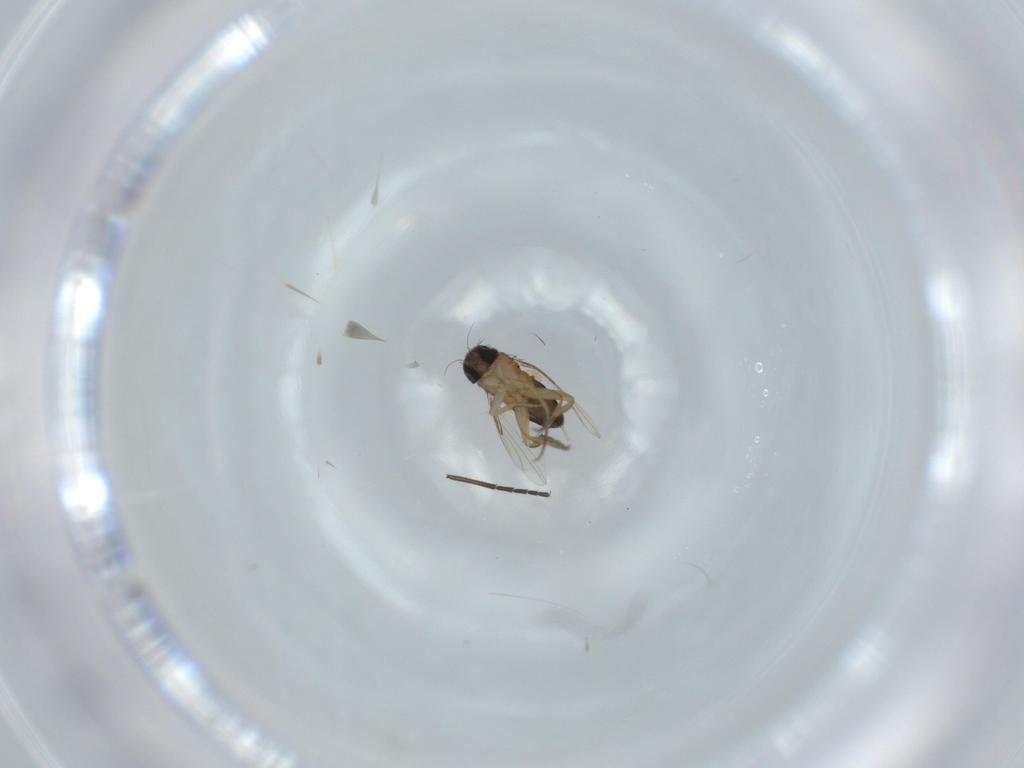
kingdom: Animalia
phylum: Arthropoda
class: Insecta
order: Diptera
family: Phoridae
